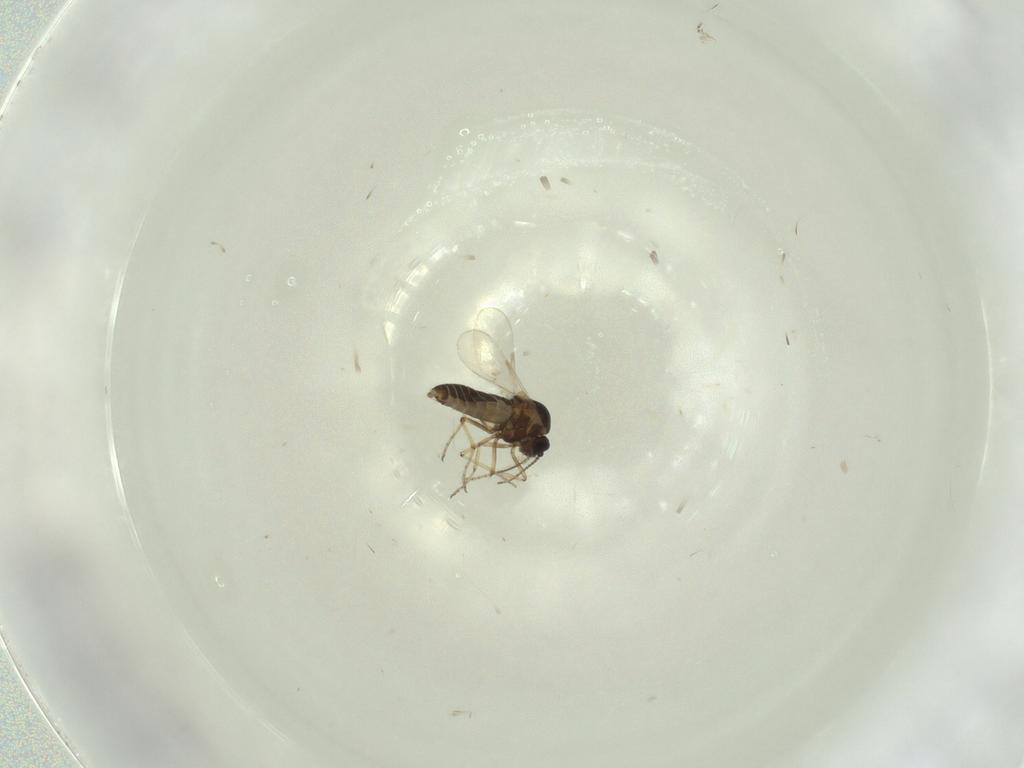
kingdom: Animalia
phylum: Arthropoda
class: Insecta
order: Diptera
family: Ceratopogonidae
